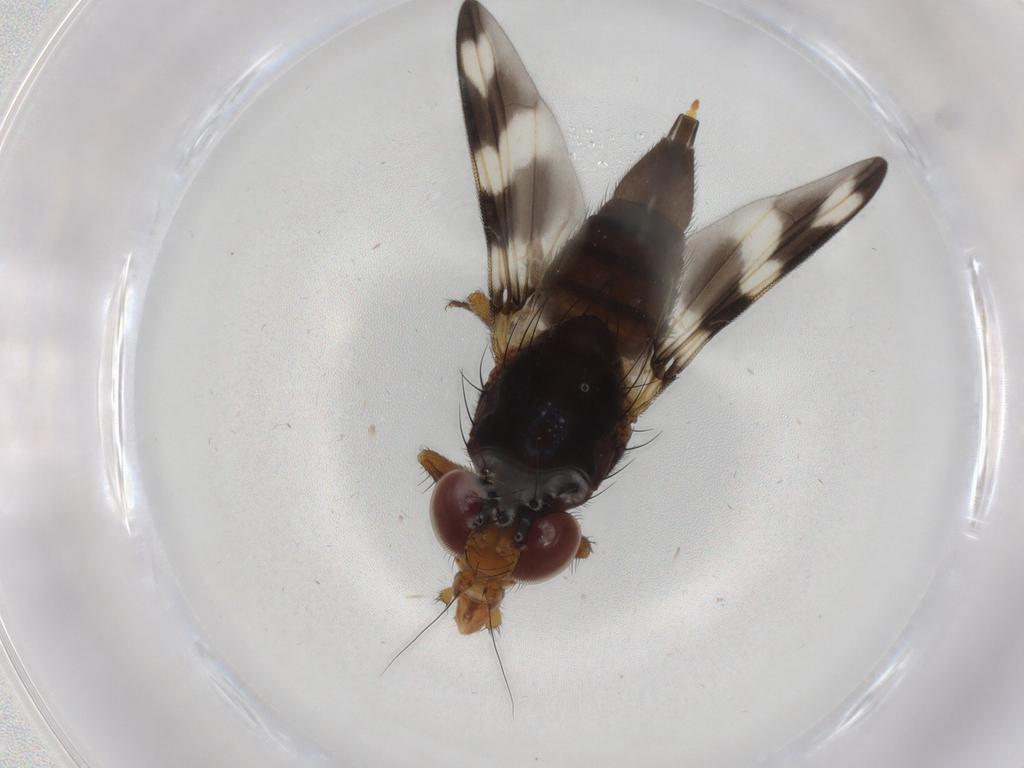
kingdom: Animalia
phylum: Arthropoda
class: Insecta
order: Diptera
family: Ulidiidae
